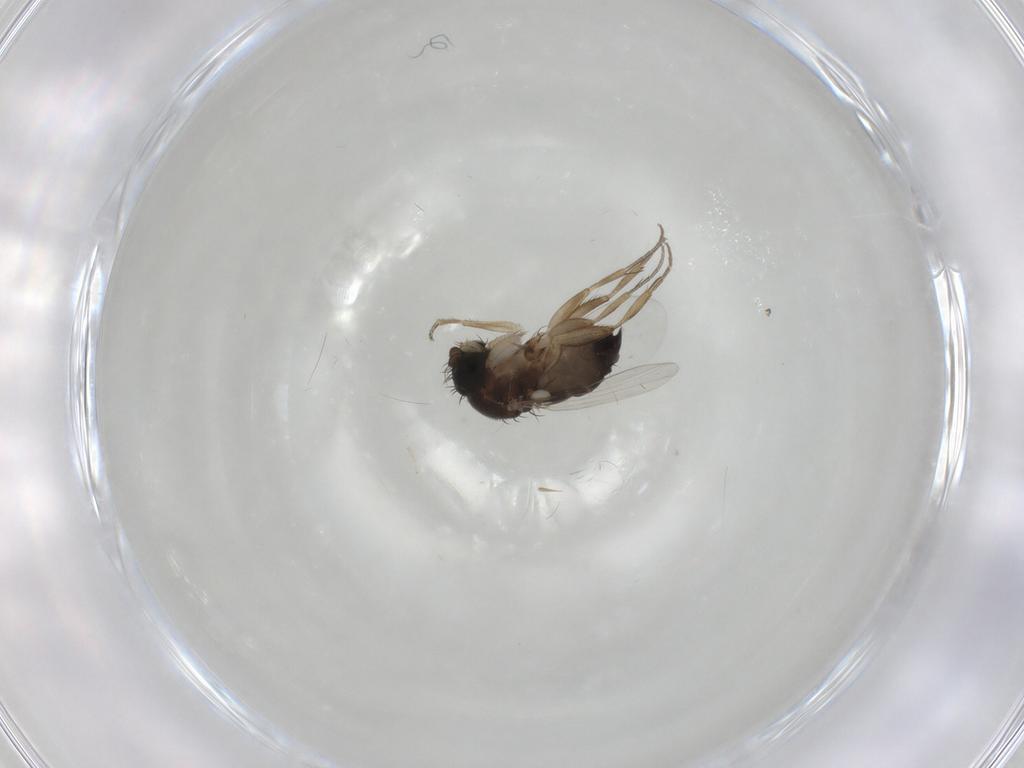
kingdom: Animalia
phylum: Arthropoda
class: Insecta
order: Diptera
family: Phoridae
